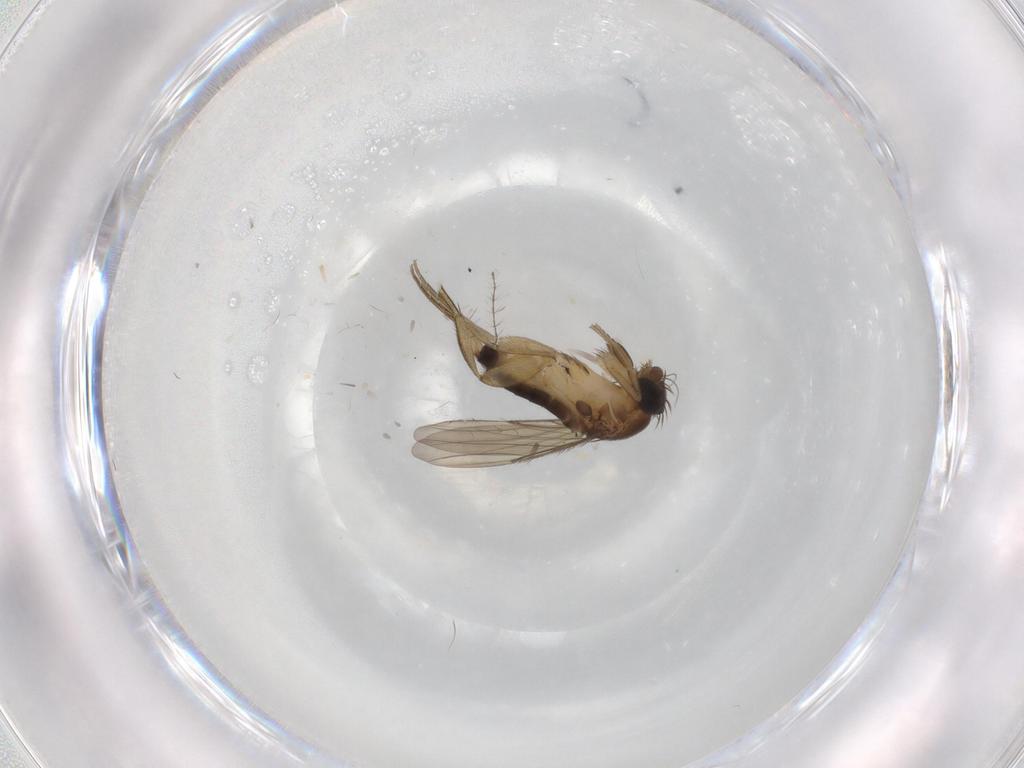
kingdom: Animalia
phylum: Arthropoda
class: Insecta
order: Diptera
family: Phoridae
